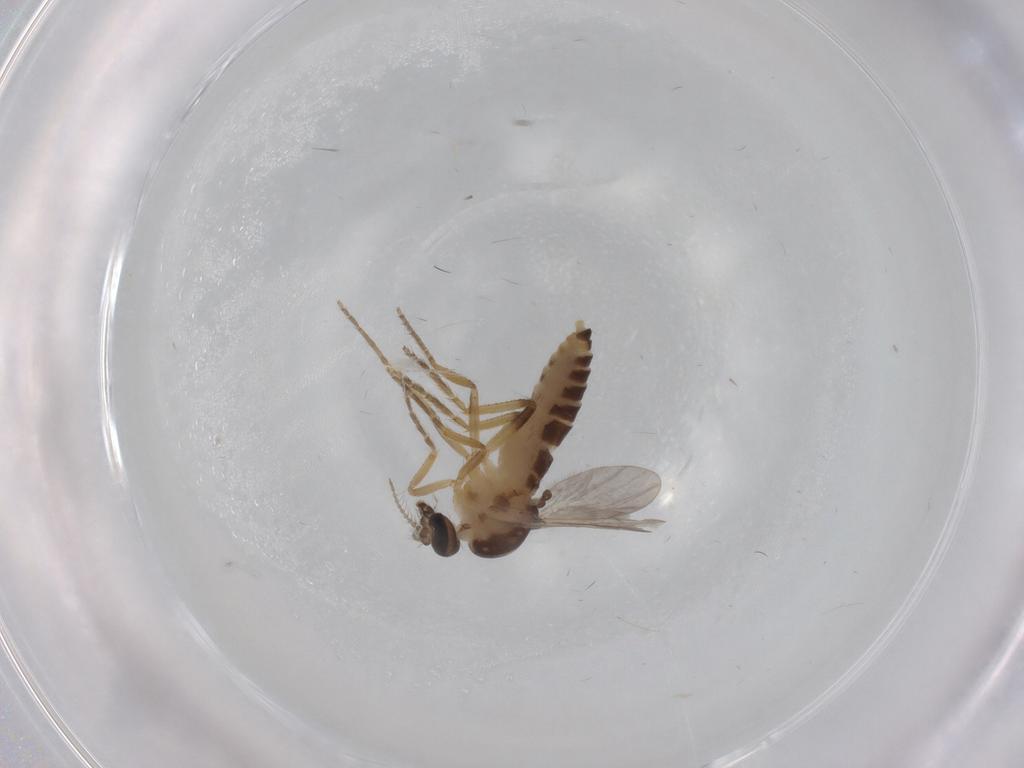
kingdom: Animalia
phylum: Arthropoda
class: Insecta
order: Diptera
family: Ceratopogonidae
